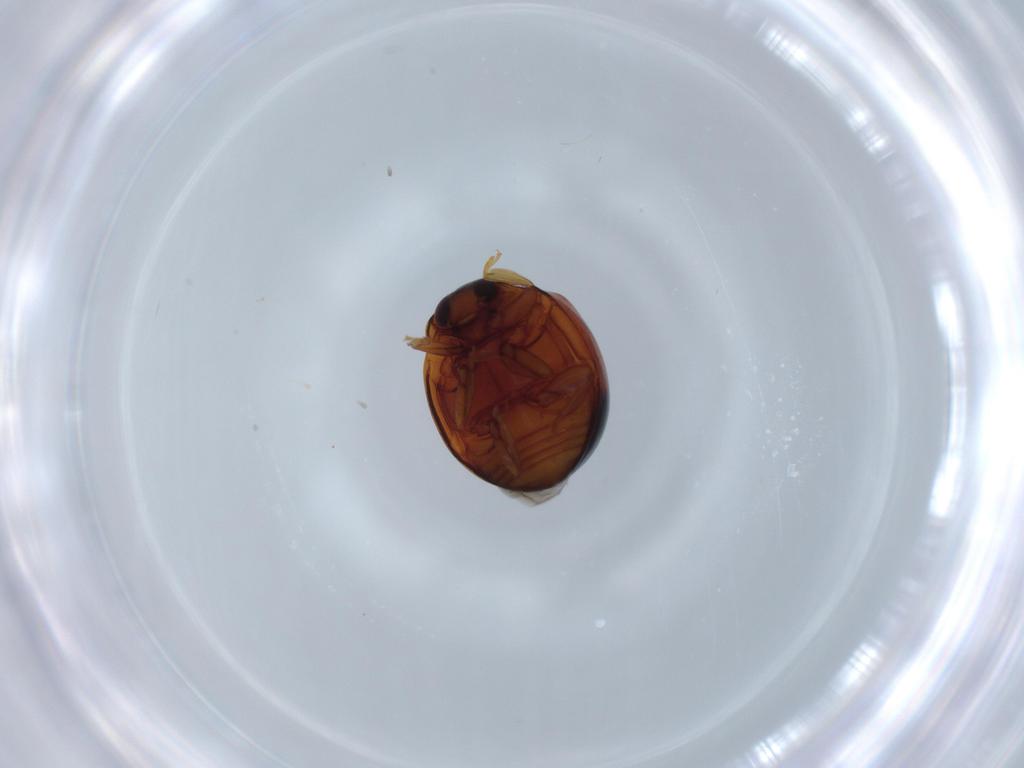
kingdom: Animalia
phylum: Arthropoda
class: Insecta
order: Coleoptera
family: Coccinellidae
